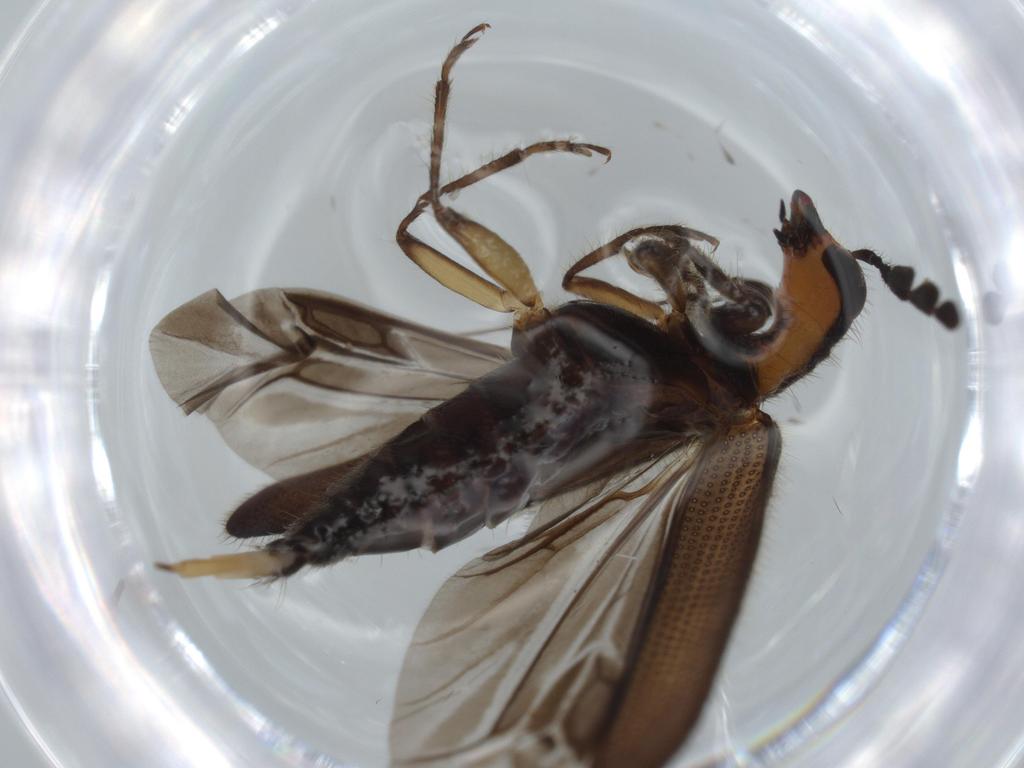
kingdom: Animalia
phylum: Arthropoda
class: Insecta
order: Coleoptera
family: Cleridae
